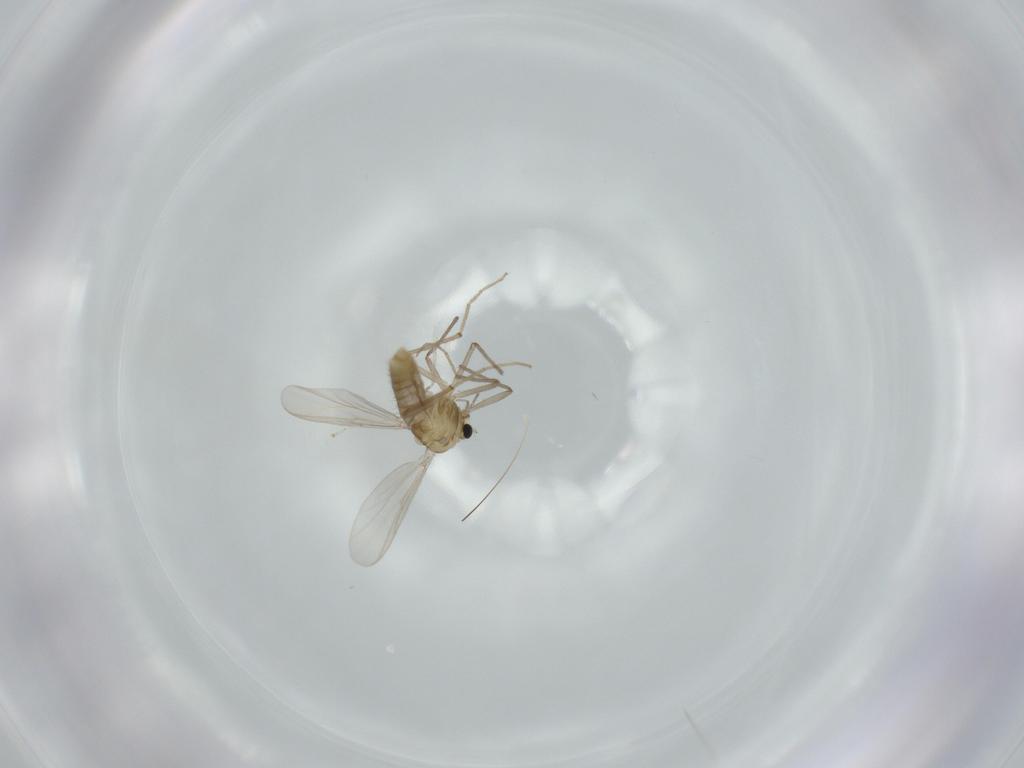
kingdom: Animalia
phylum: Arthropoda
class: Insecta
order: Diptera
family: Chironomidae
